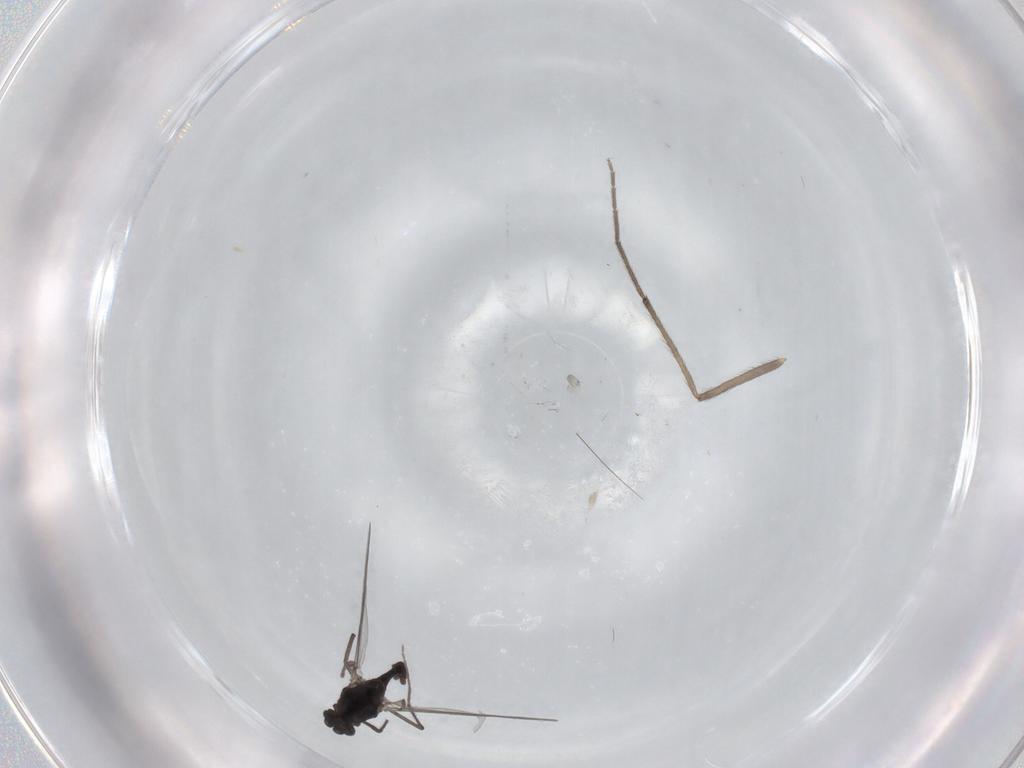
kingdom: Animalia
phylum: Arthropoda
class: Insecta
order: Diptera
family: Chironomidae
